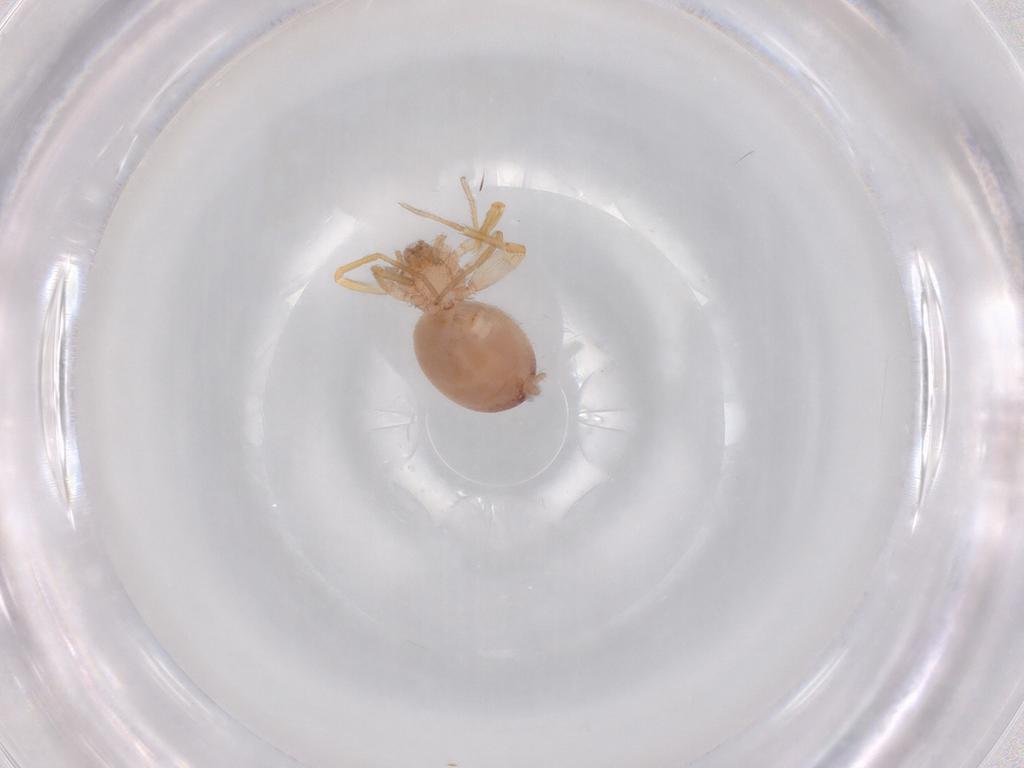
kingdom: Animalia
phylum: Arthropoda
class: Arachnida
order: Araneae
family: Idiopidae
